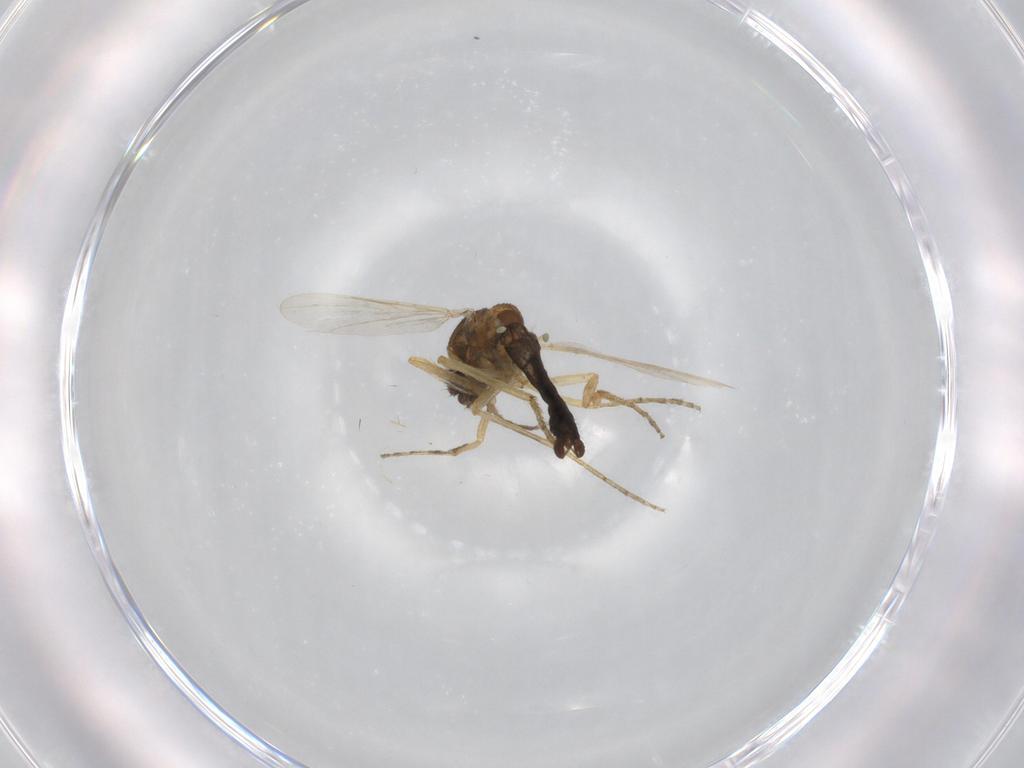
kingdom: Animalia
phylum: Arthropoda
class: Insecta
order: Diptera
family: Ceratopogonidae
